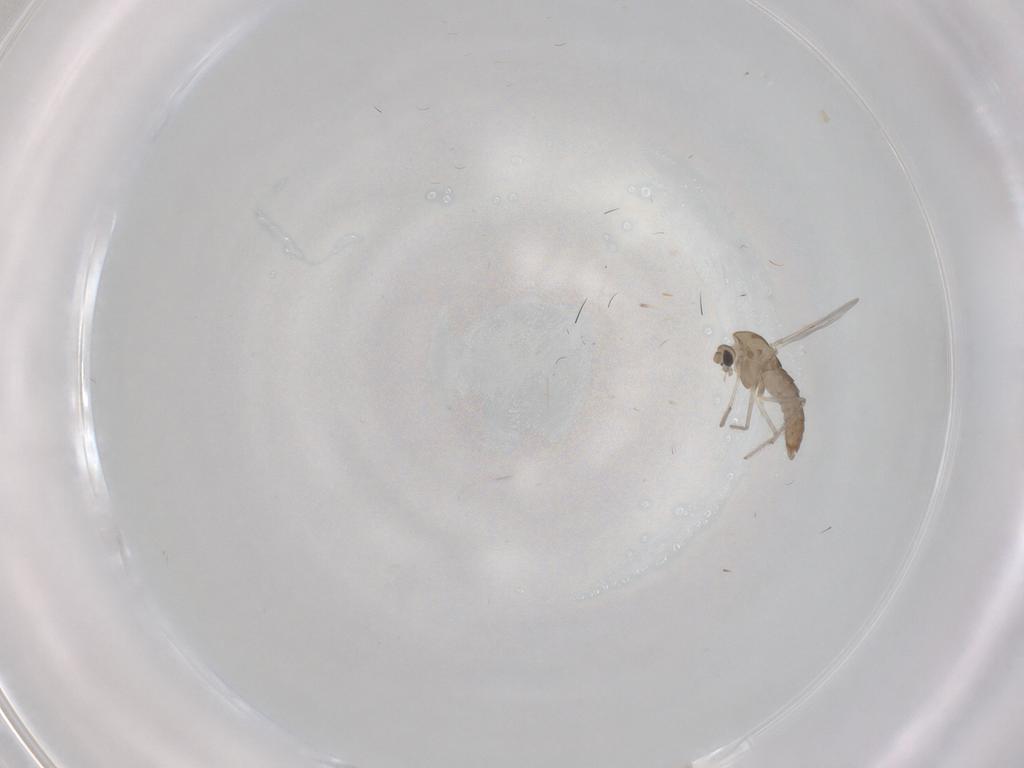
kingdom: Animalia
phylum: Arthropoda
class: Insecta
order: Diptera
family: Chironomidae
